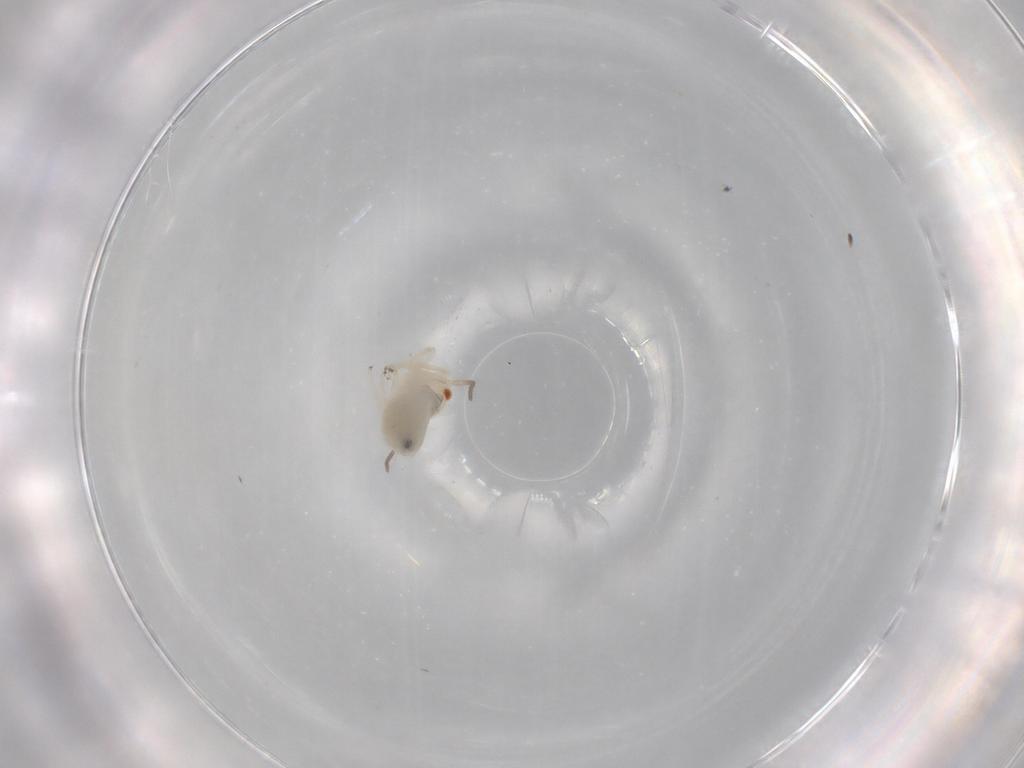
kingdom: Animalia
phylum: Arthropoda
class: Insecta
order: Psocodea
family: Caeciliusidae
